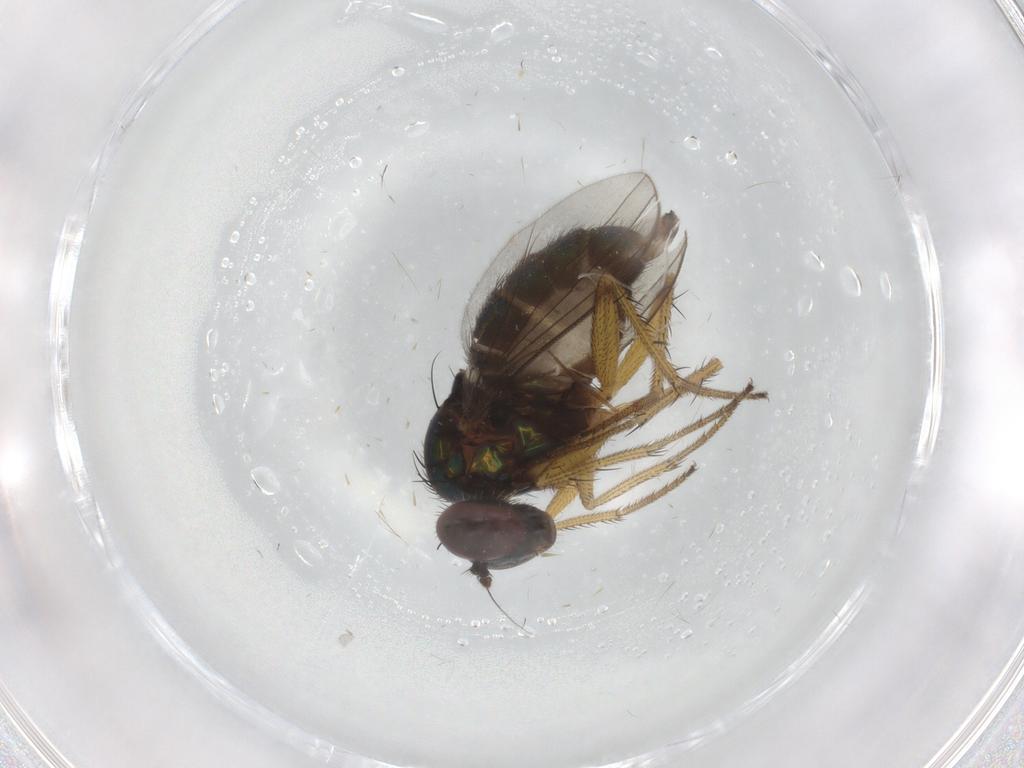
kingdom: Animalia
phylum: Arthropoda
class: Insecta
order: Diptera
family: Dolichopodidae
